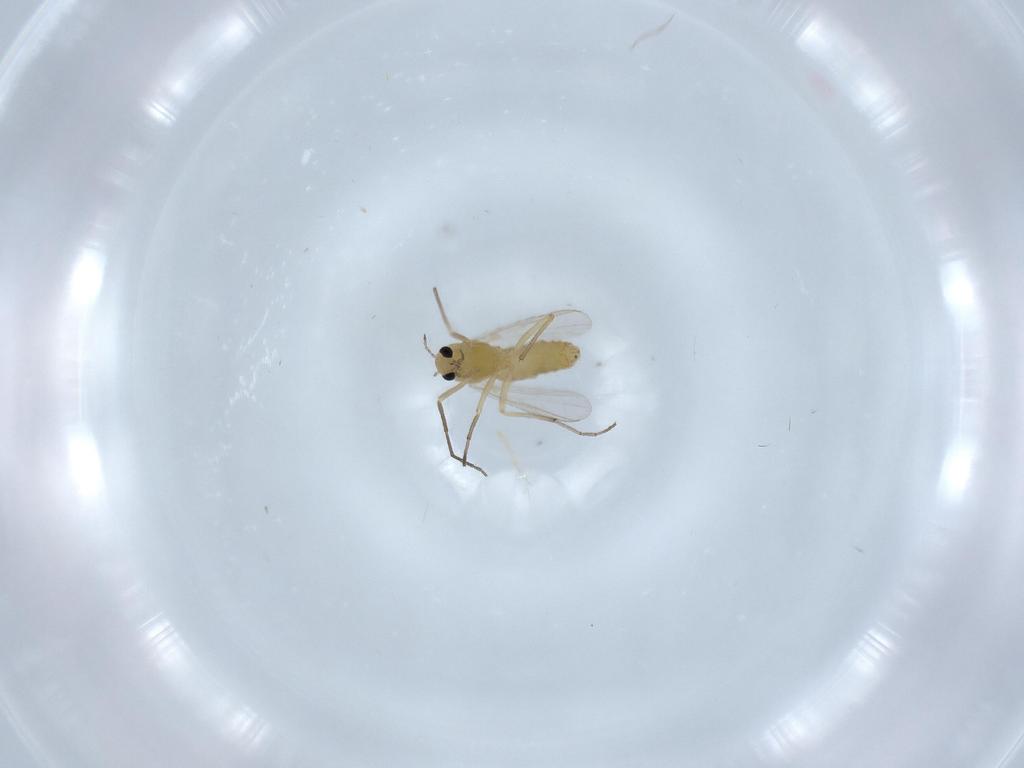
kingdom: Animalia
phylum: Arthropoda
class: Insecta
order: Diptera
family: Chironomidae
